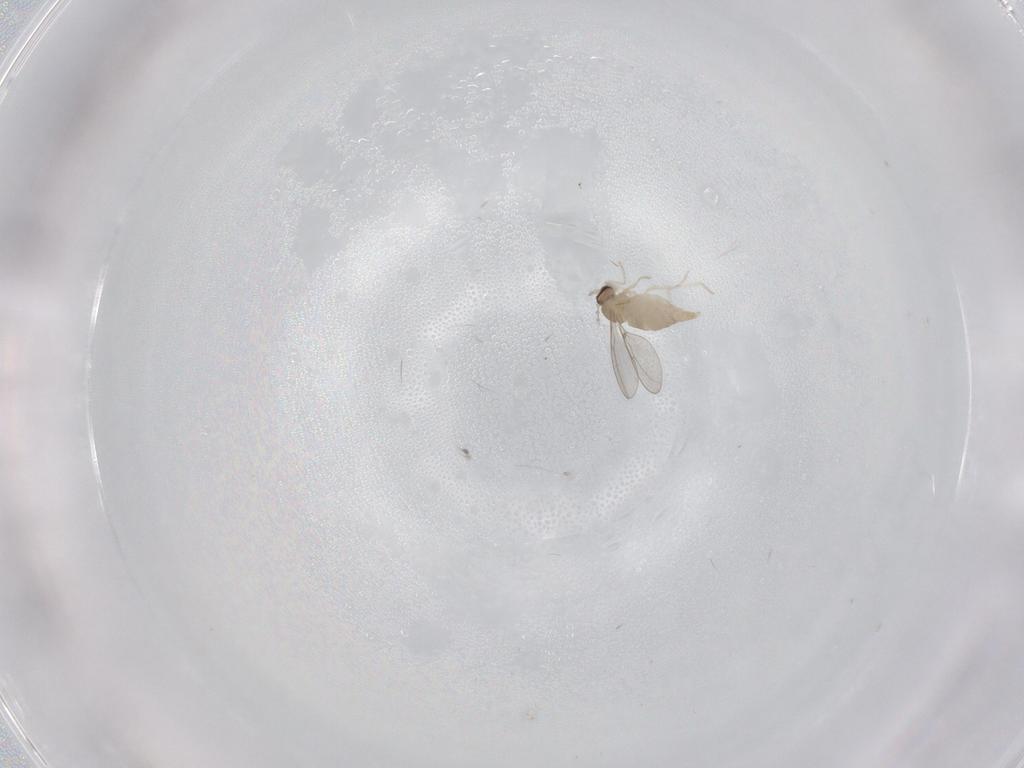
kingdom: Animalia
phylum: Arthropoda
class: Insecta
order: Diptera
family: Cecidomyiidae
